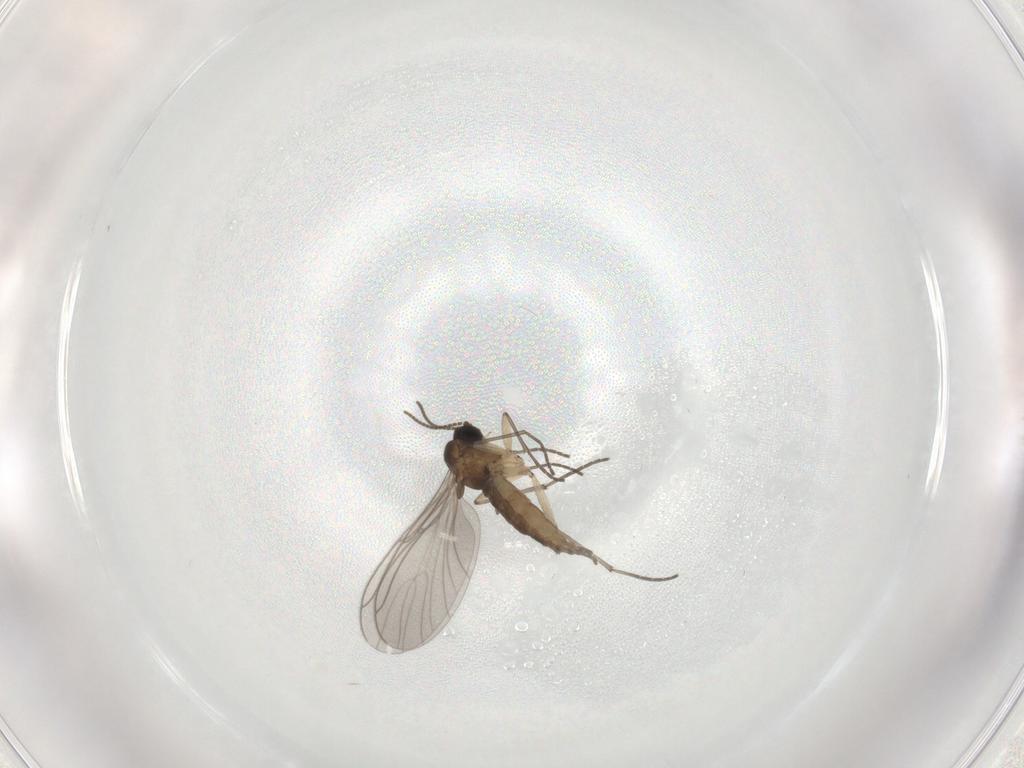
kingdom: Animalia
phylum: Arthropoda
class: Insecta
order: Diptera
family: Sciaridae
